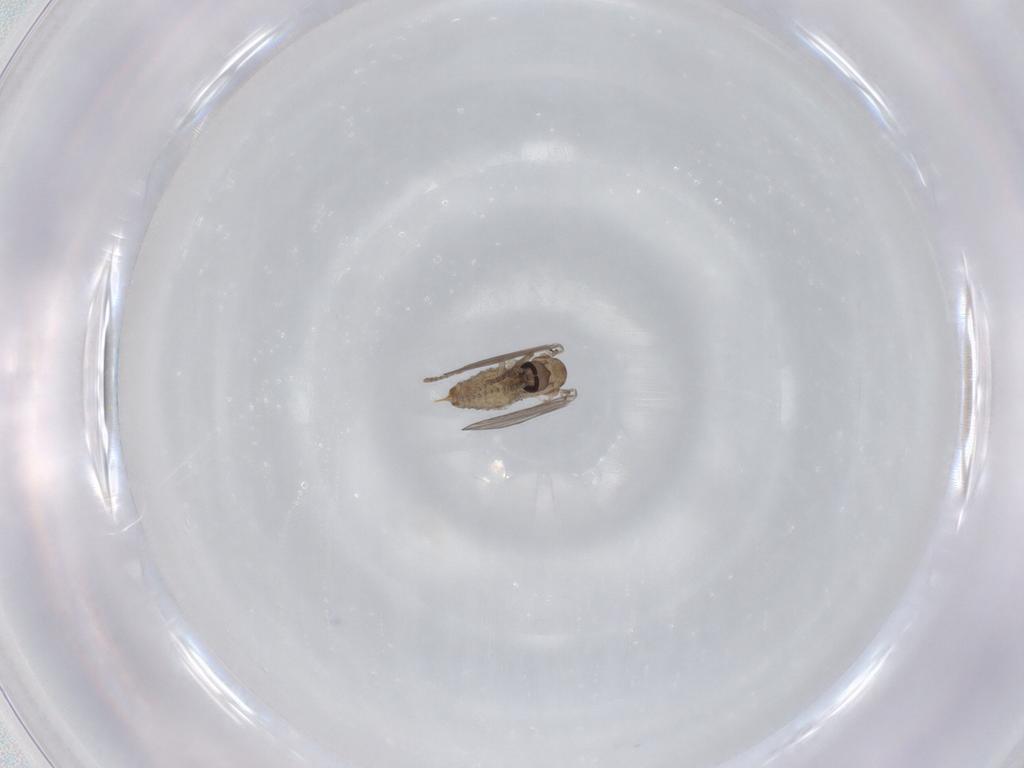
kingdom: Animalia
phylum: Arthropoda
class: Insecta
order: Diptera
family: Psychodidae
